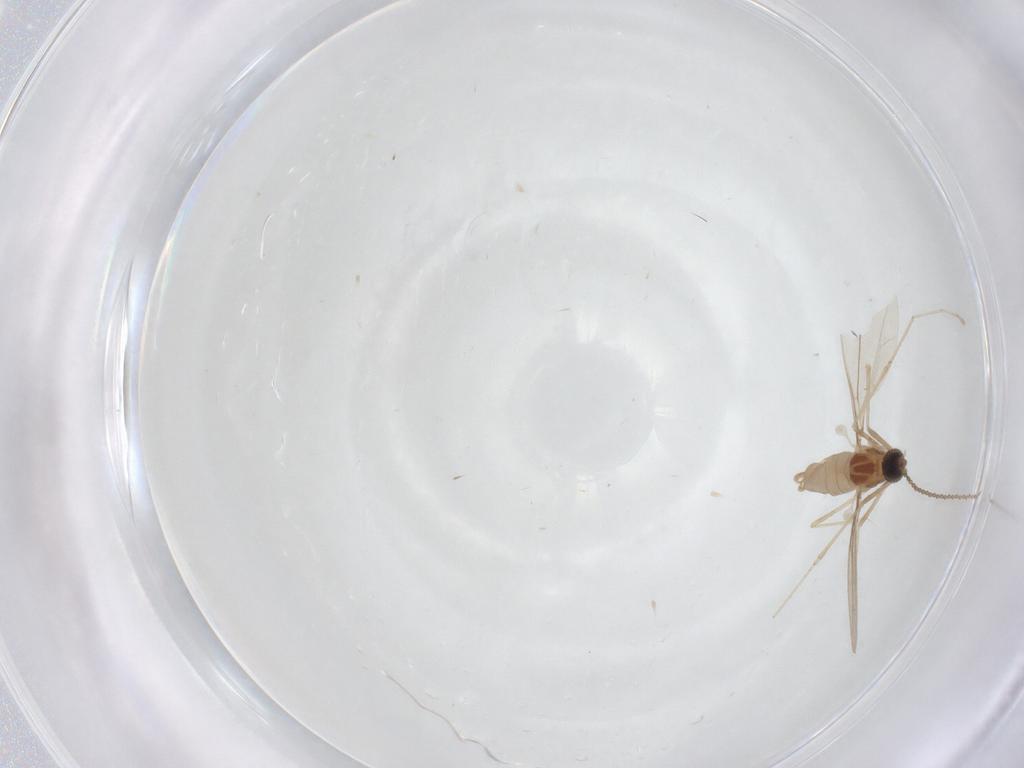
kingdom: Animalia
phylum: Arthropoda
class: Insecta
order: Diptera
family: Cecidomyiidae
